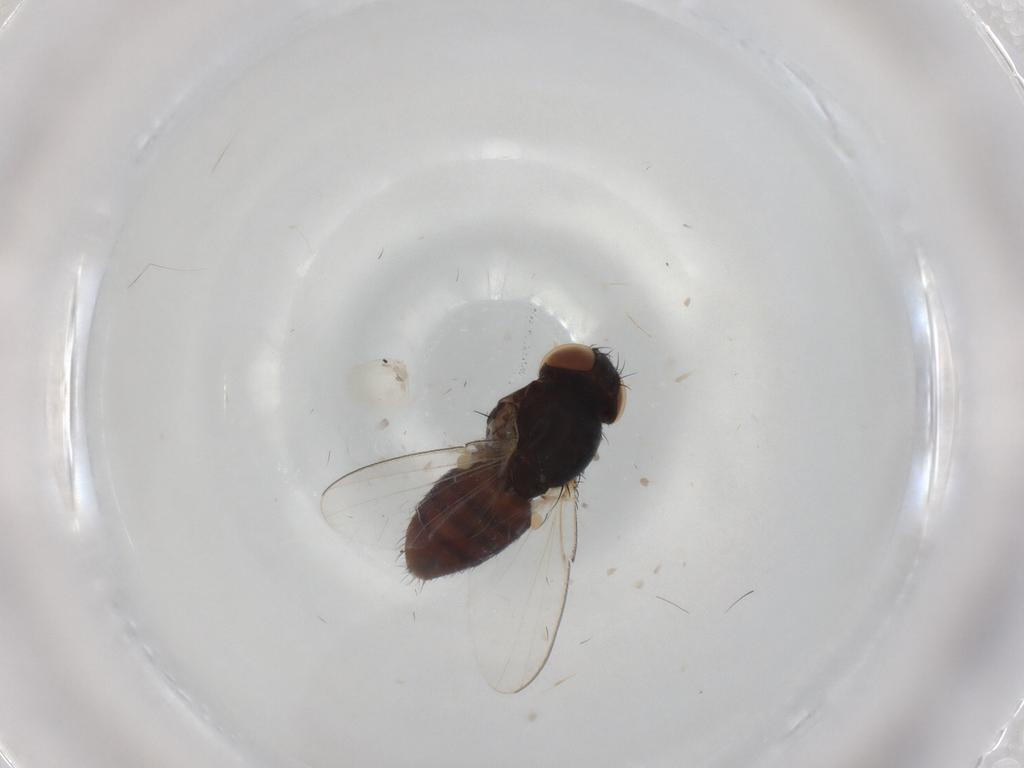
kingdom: Animalia
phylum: Arthropoda
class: Insecta
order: Diptera
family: Milichiidae
